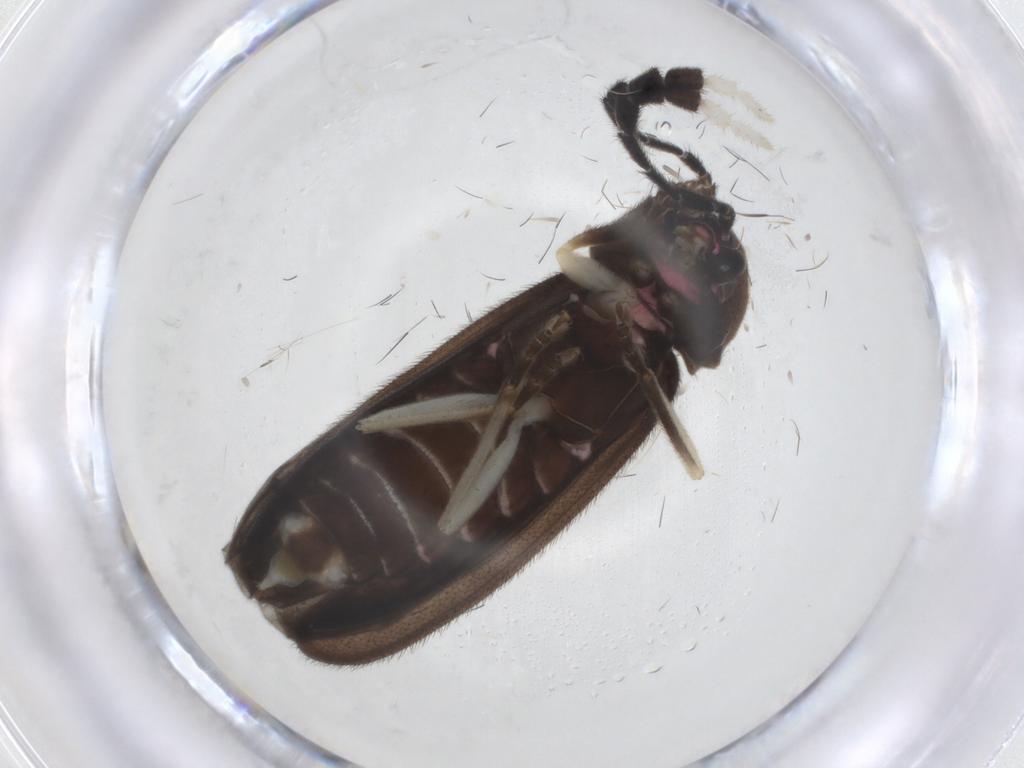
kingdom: Animalia
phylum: Arthropoda
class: Insecta
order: Coleoptera
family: Lampyridae
